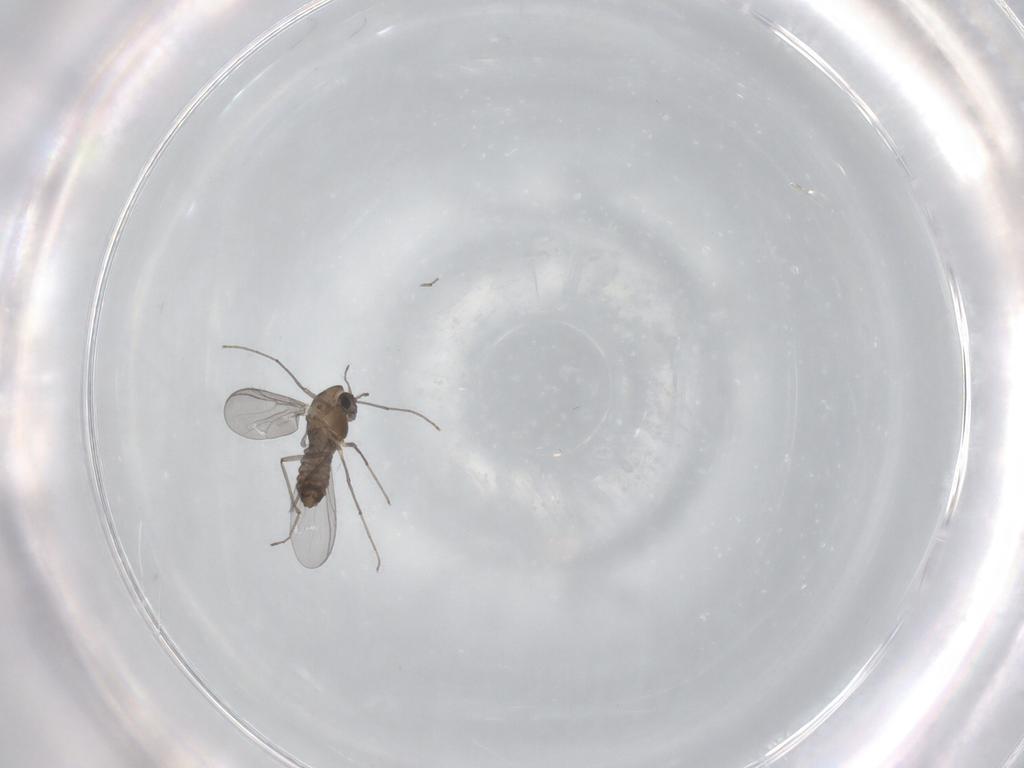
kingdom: Animalia
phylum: Arthropoda
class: Insecta
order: Diptera
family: Chironomidae
